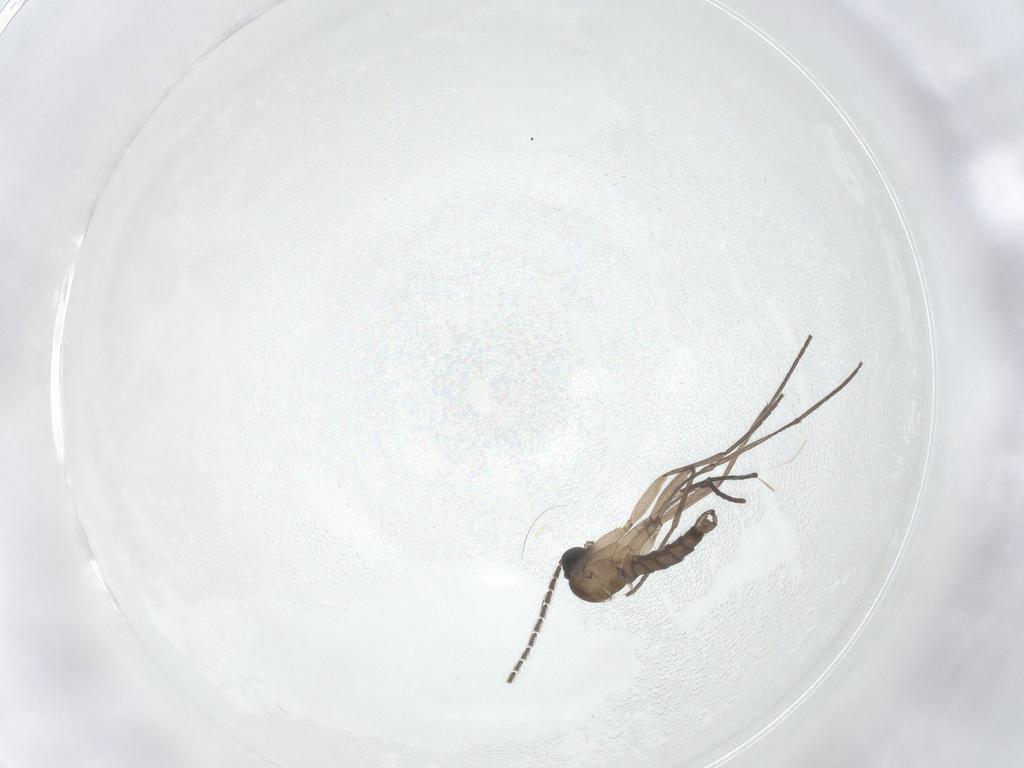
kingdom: Animalia
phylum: Arthropoda
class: Insecta
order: Diptera
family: Sciaridae
